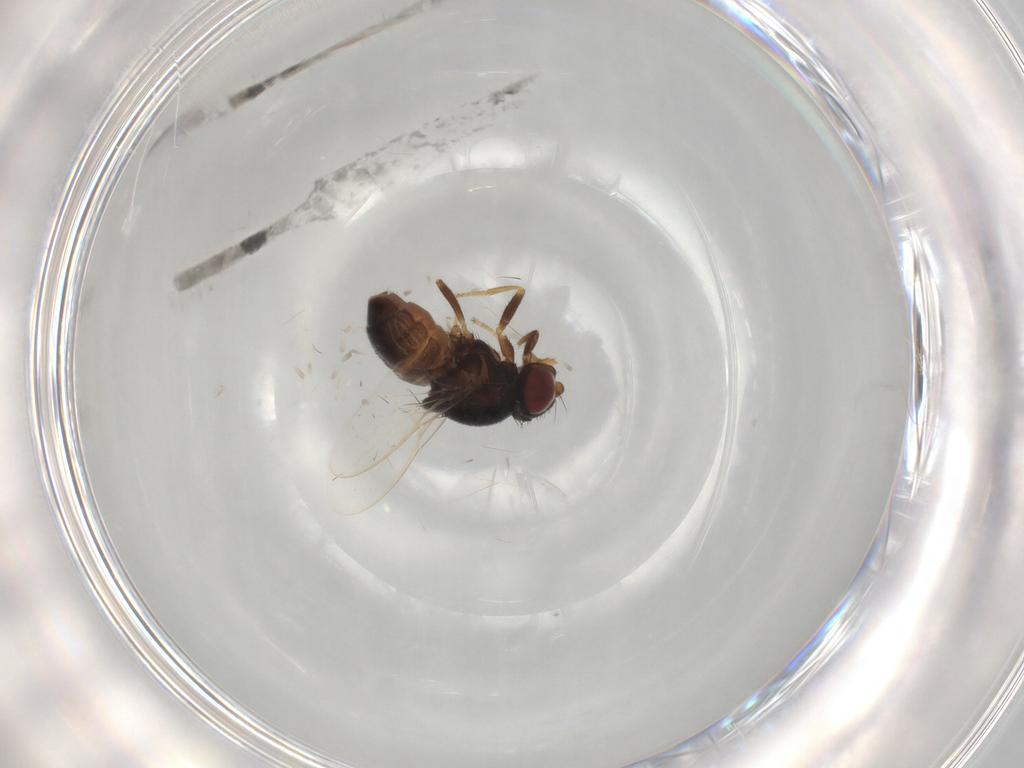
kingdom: Animalia
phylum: Arthropoda
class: Insecta
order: Diptera
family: Chloropidae
